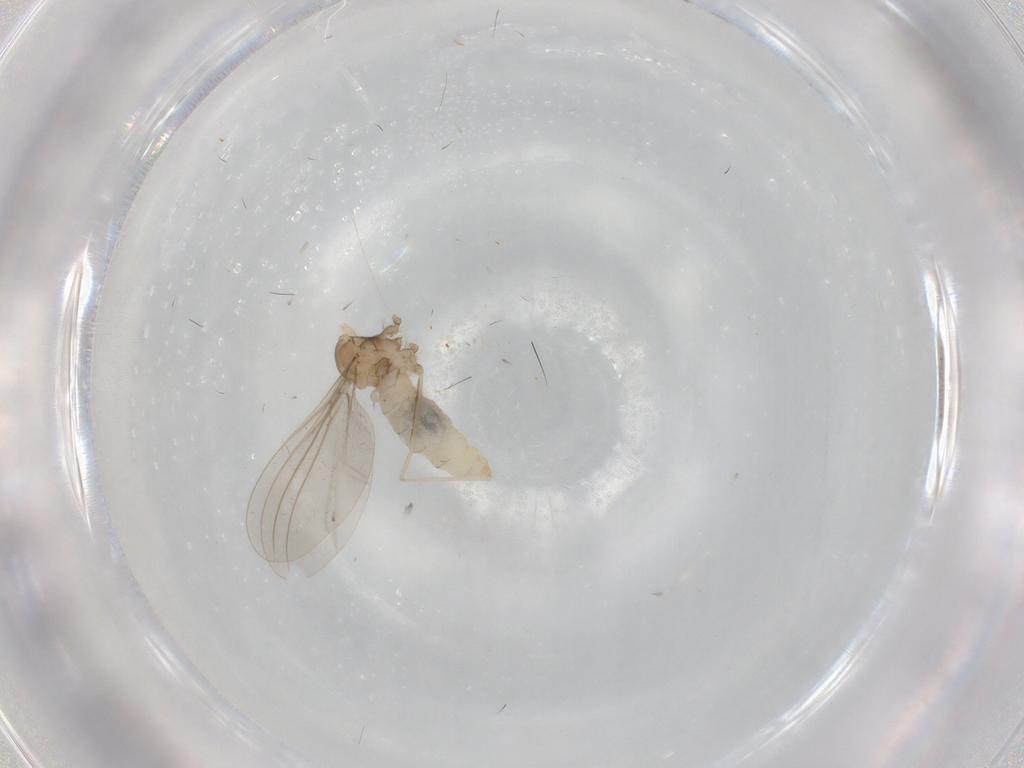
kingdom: Animalia
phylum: Arthropoda
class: Insecta
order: Diptera
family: Cecidomyiidae
